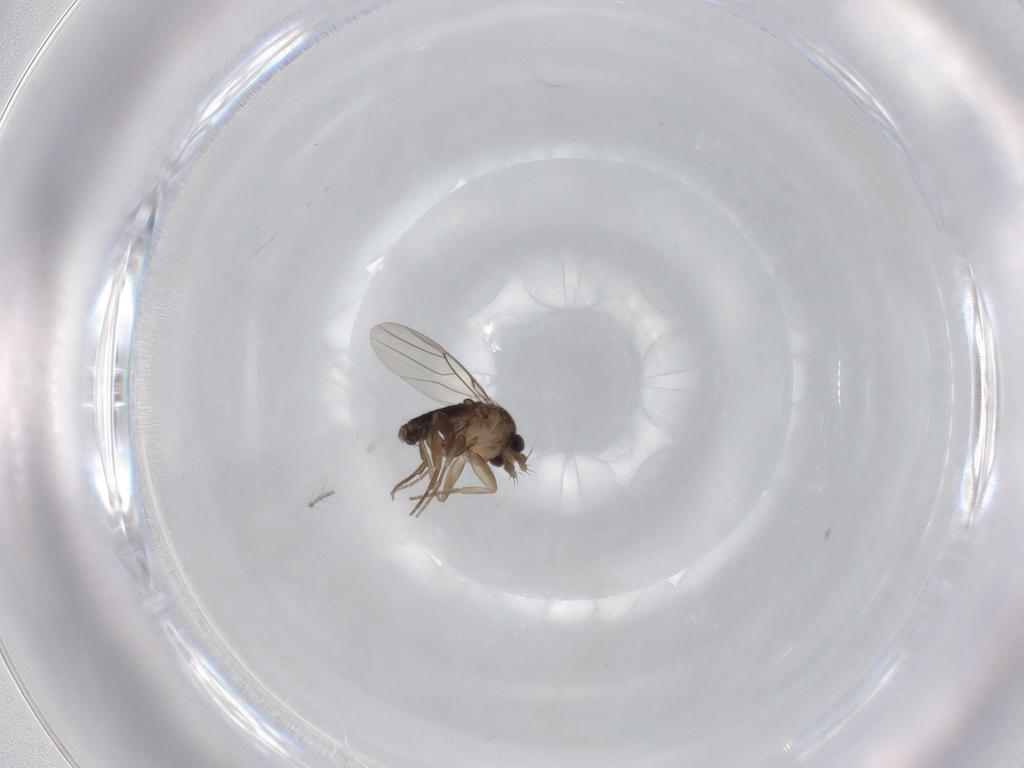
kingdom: Animalia
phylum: Arthropoda
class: Insecta
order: Diptera
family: Phoridae
